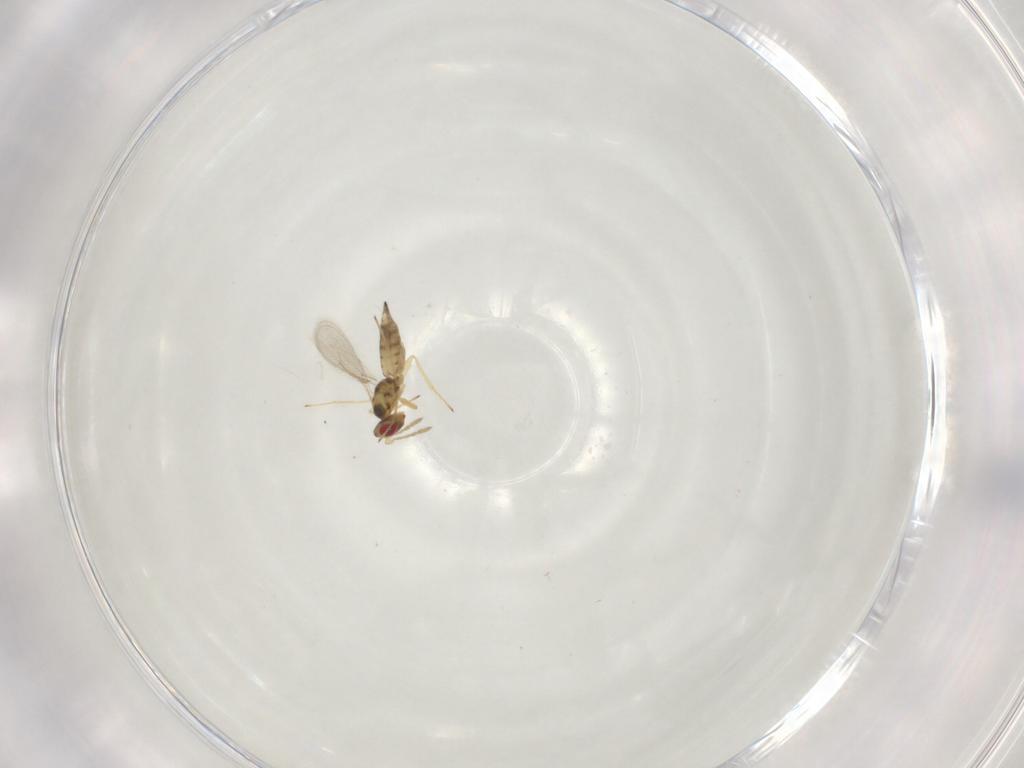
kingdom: Animalia
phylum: Arthropoda
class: Insecta
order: Hymenoptera
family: Eulophidae
